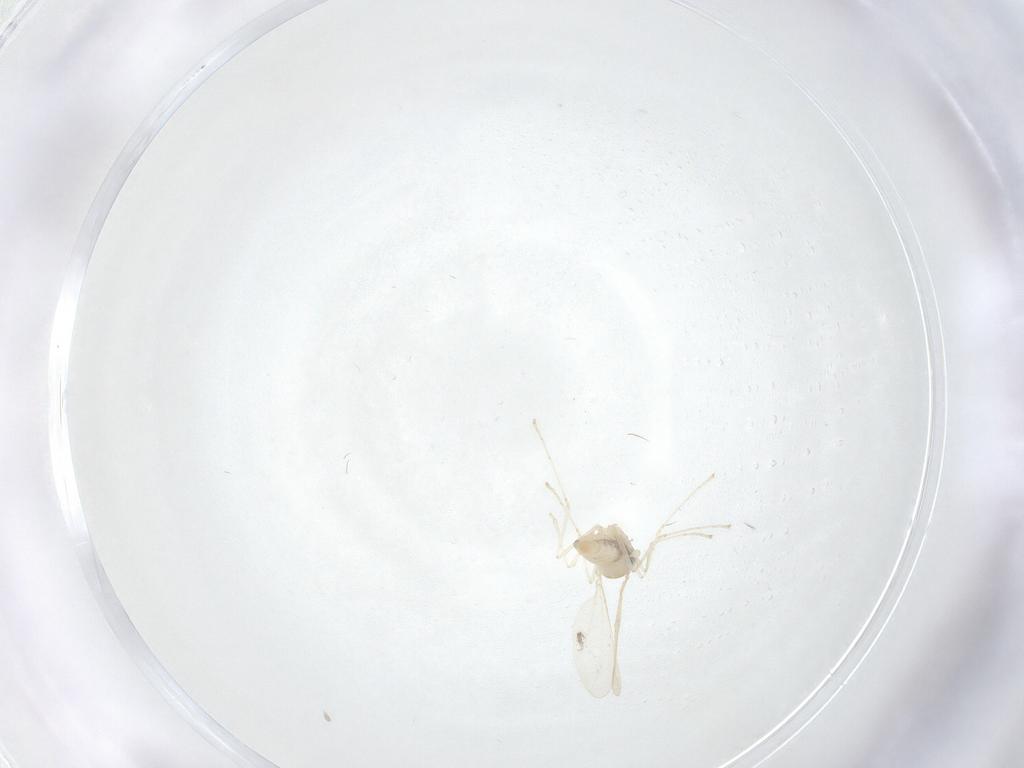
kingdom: Animalia
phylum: Arthropoda
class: Insecta
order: Diptera
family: Cecidomyiidae
